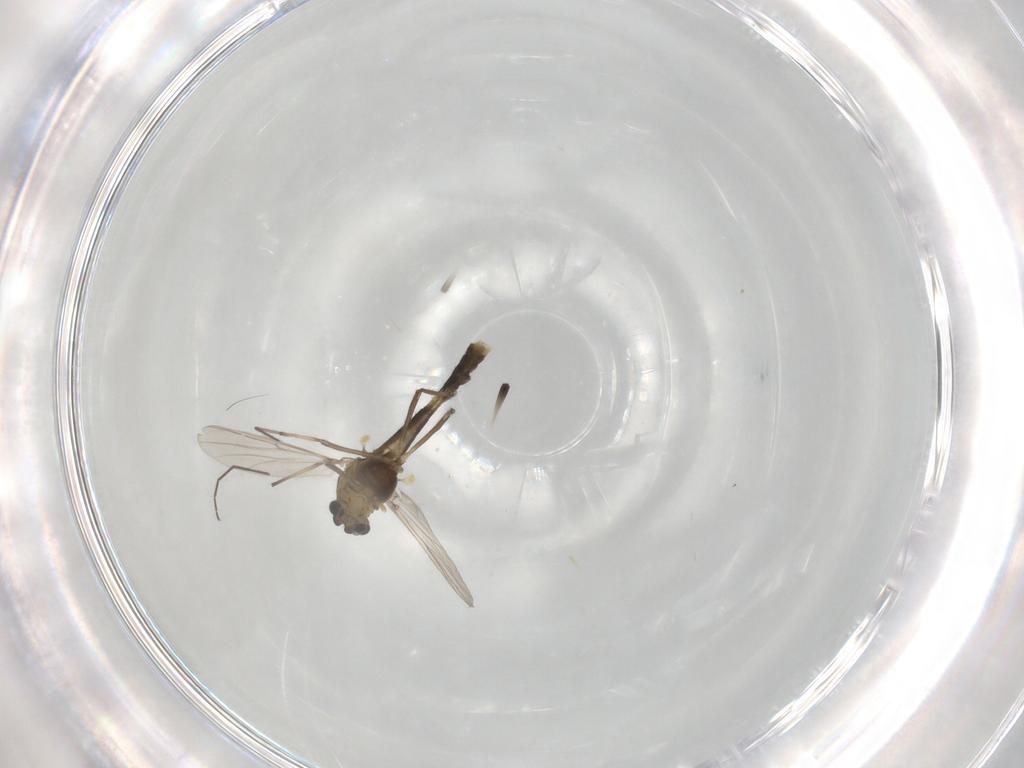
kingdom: Animalia
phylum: Arthropoda
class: Insecta
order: Diptera
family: Chironomidae
